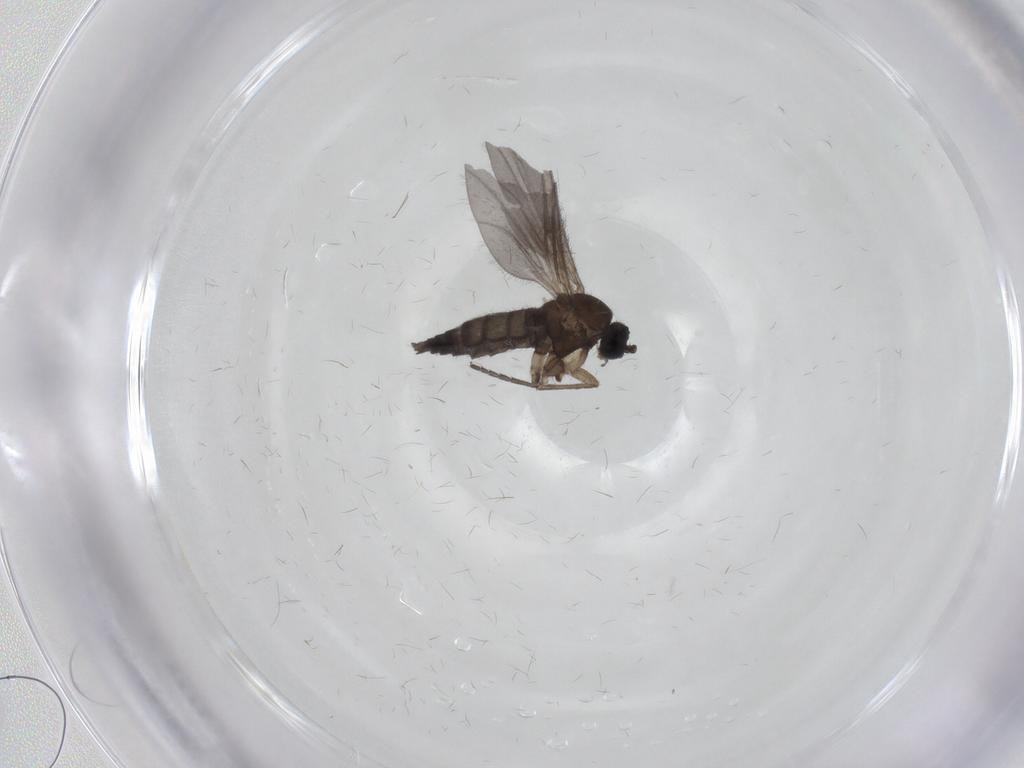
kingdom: Animalia
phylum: Arthropoda
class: Insecta
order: Diptera
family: Sciaridae
